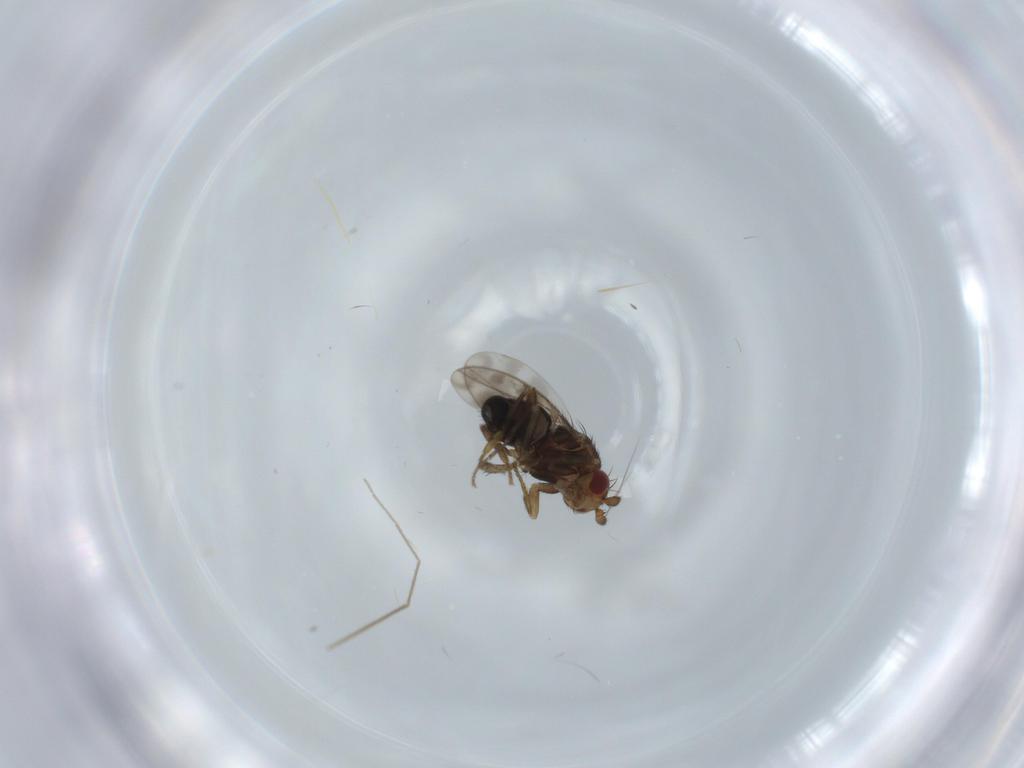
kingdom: Animalia
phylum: Arthropoda
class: Insecta
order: Diptera
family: Sphaeroceridae
